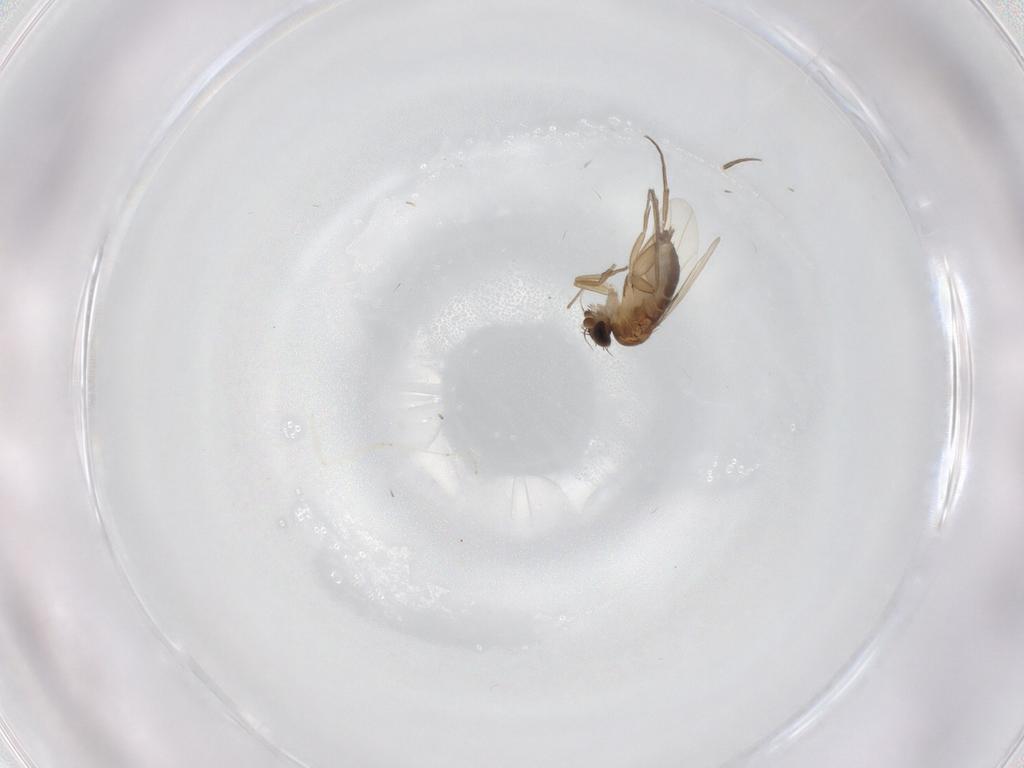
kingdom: Animalia
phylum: Arthropoda
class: Insecta
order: Diptera
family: Cecidomyiidae
